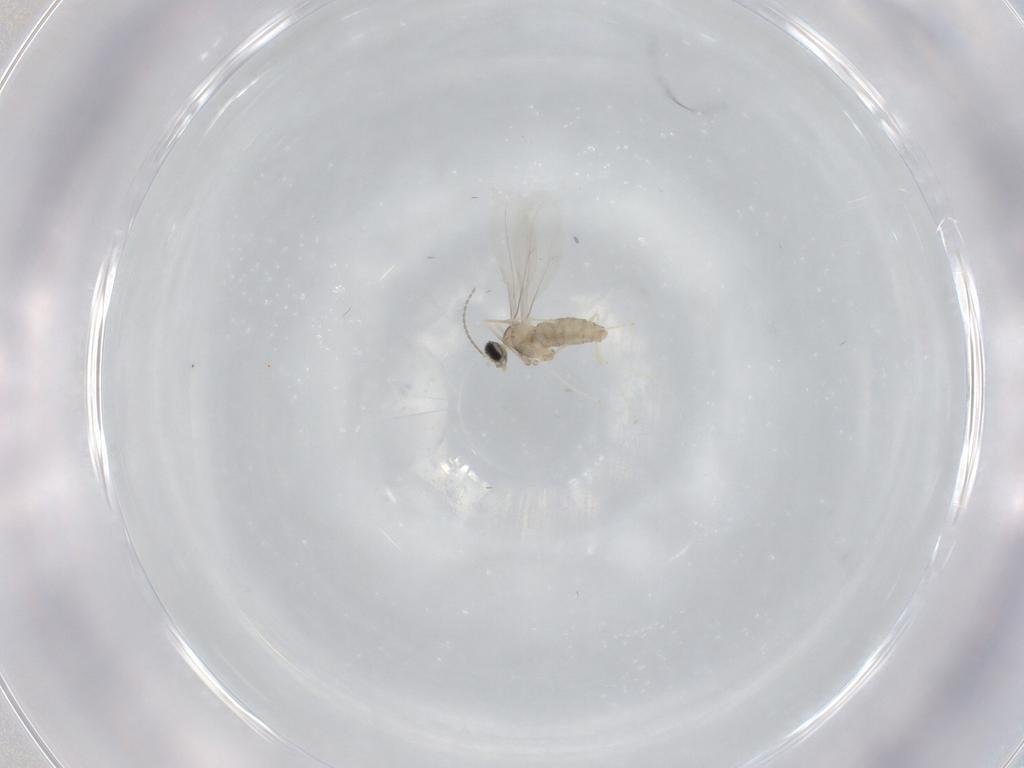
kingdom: Animalia
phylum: Arthropoda
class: Insecta
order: Diptera
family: Cecidomyiidae
